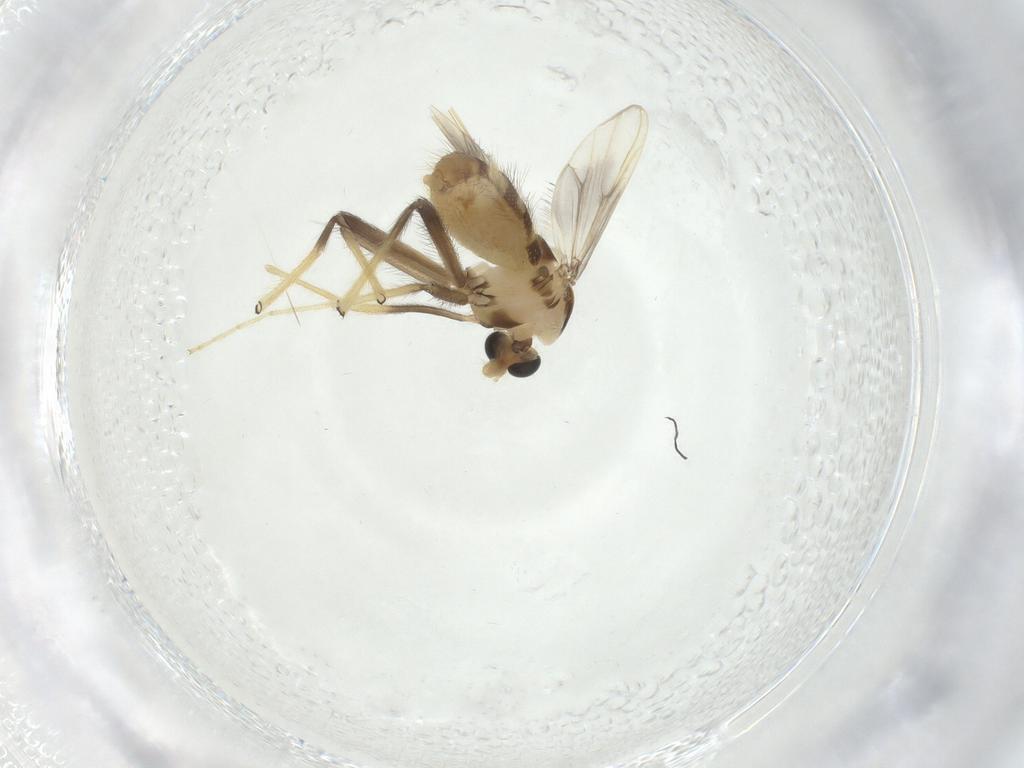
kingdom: Animalia
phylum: Arthropoda
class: Insecta
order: Diptera
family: Chironomidae
